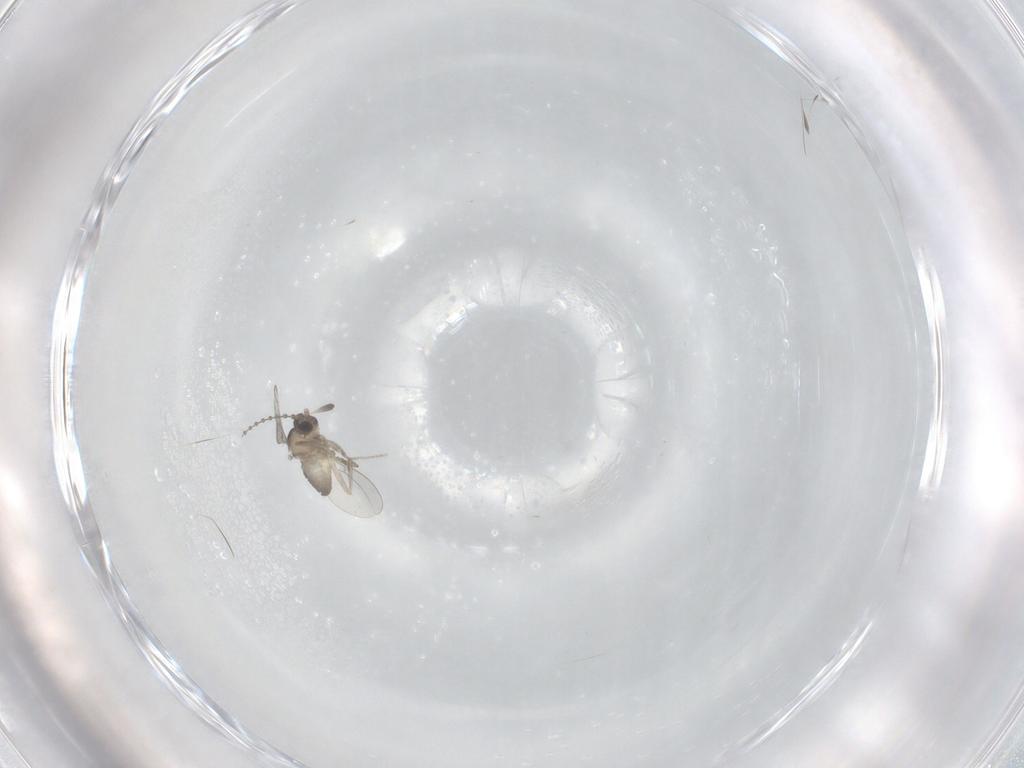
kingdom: Animalia
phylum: Arthropoda
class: Insecta
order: Diptera
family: Cecidomyiidae
